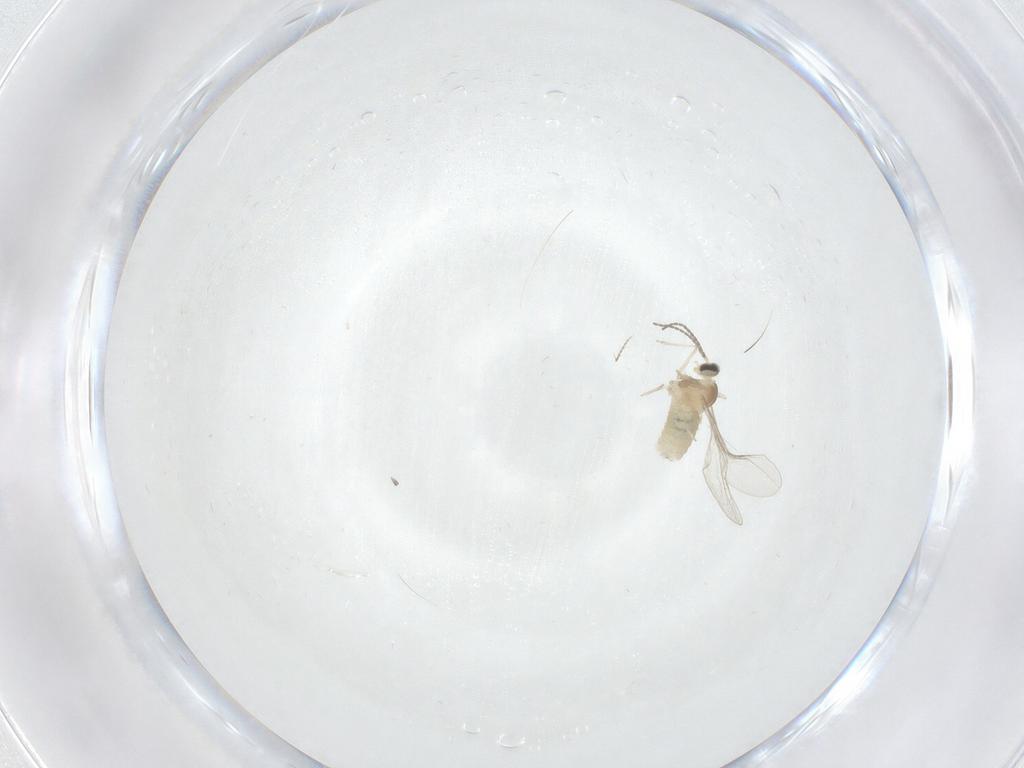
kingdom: Animalia
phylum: Arthropoda
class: Insecta
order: Diptera
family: Cecidomyiidae
